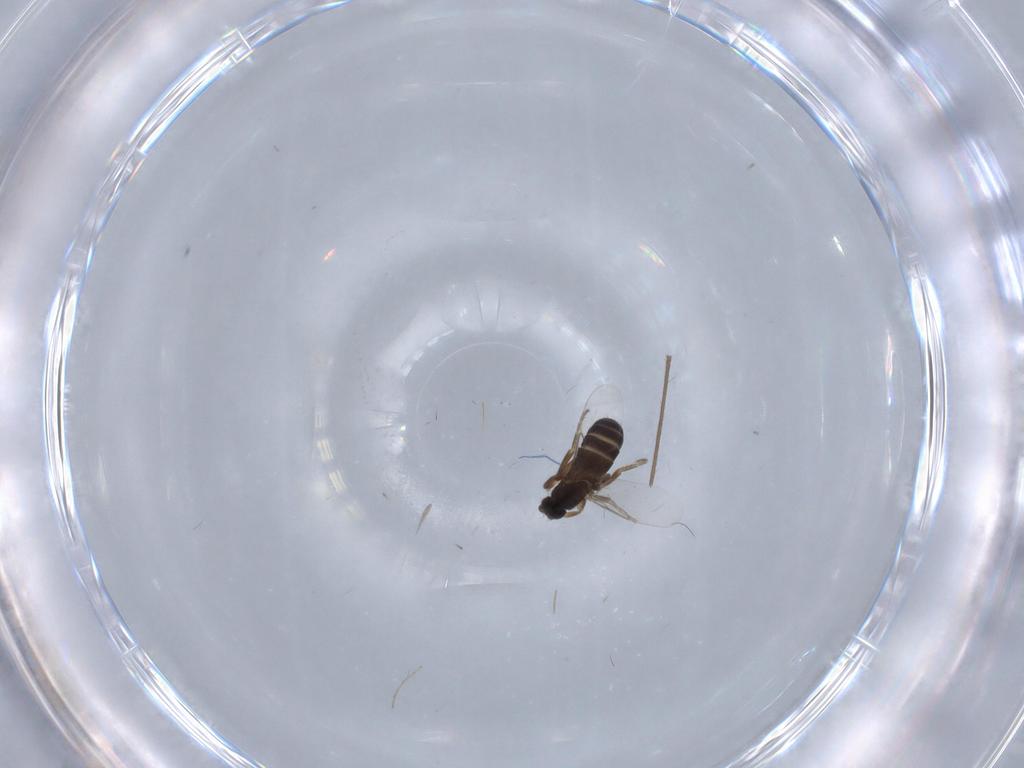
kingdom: Animalia
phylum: Arthropoda
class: Insecta
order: Diptera
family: Phoridae
